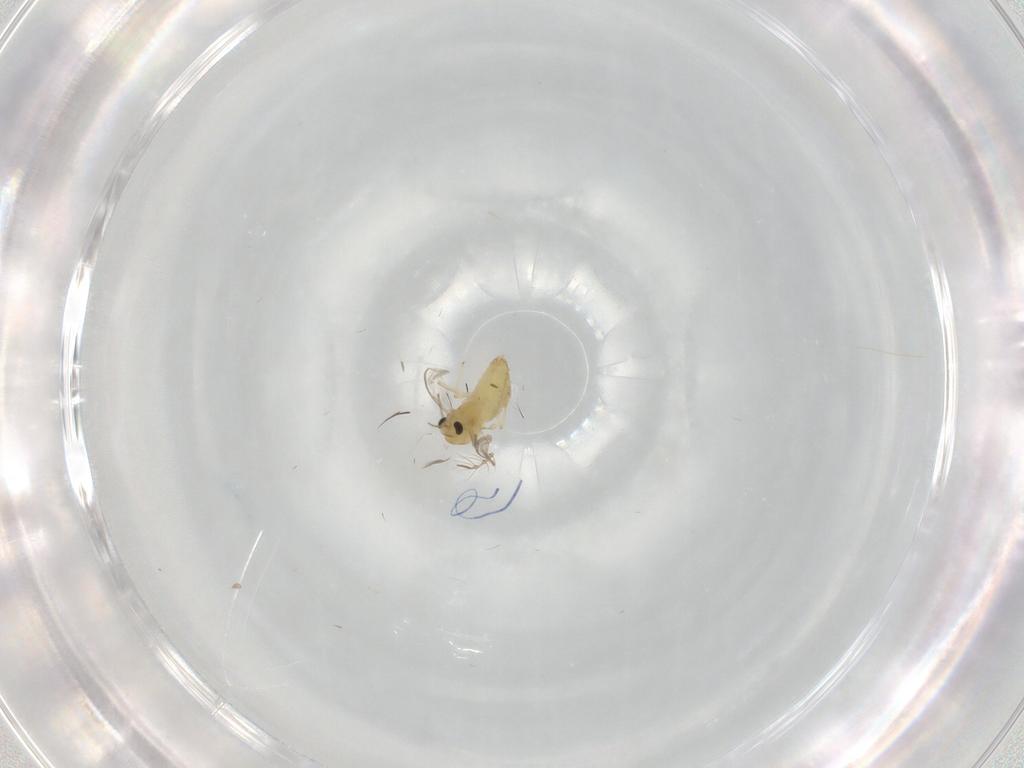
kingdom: Animalia
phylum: Arthropoda
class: Insecta
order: Diptera
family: Chironomidae
